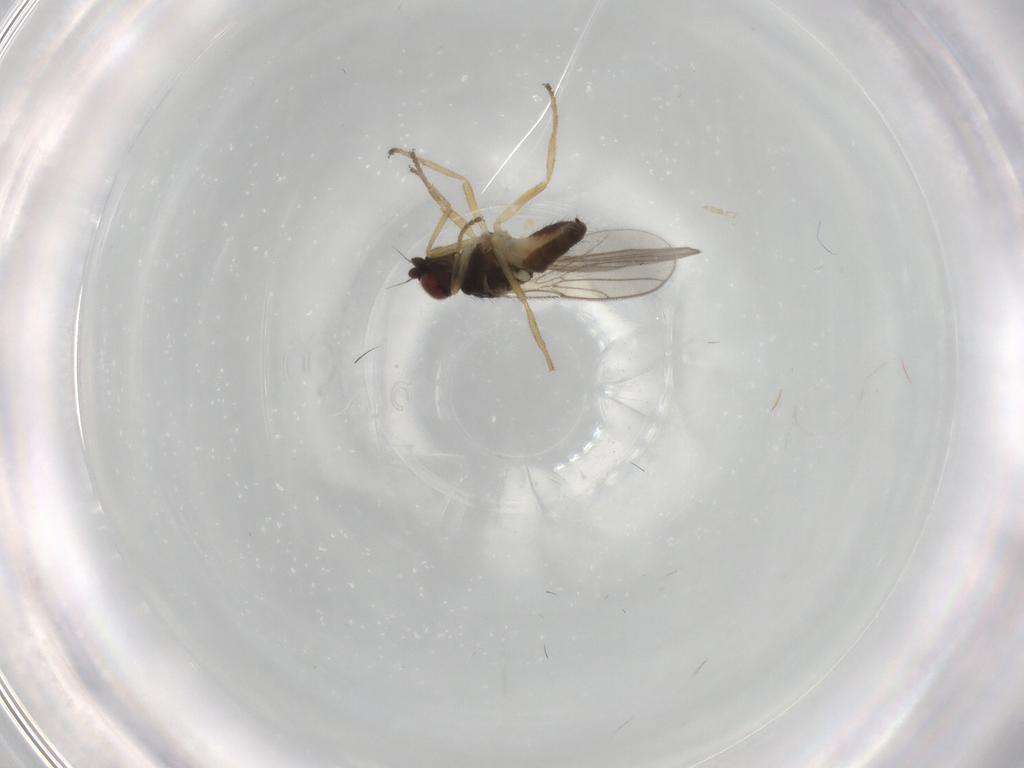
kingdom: Animalia
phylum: Arthropoda
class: Insecta
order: Diptera
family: Chloropidae
